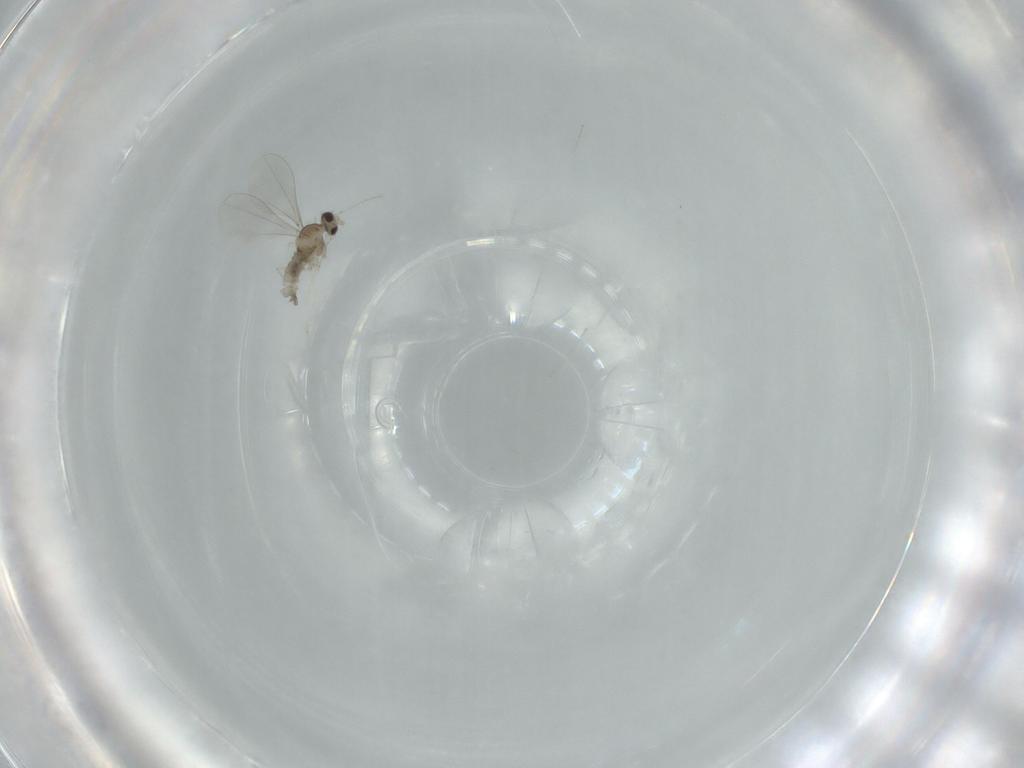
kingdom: Animalia
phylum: Arthropoda
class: Insecta
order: Diptera
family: Cecidomyiidae
